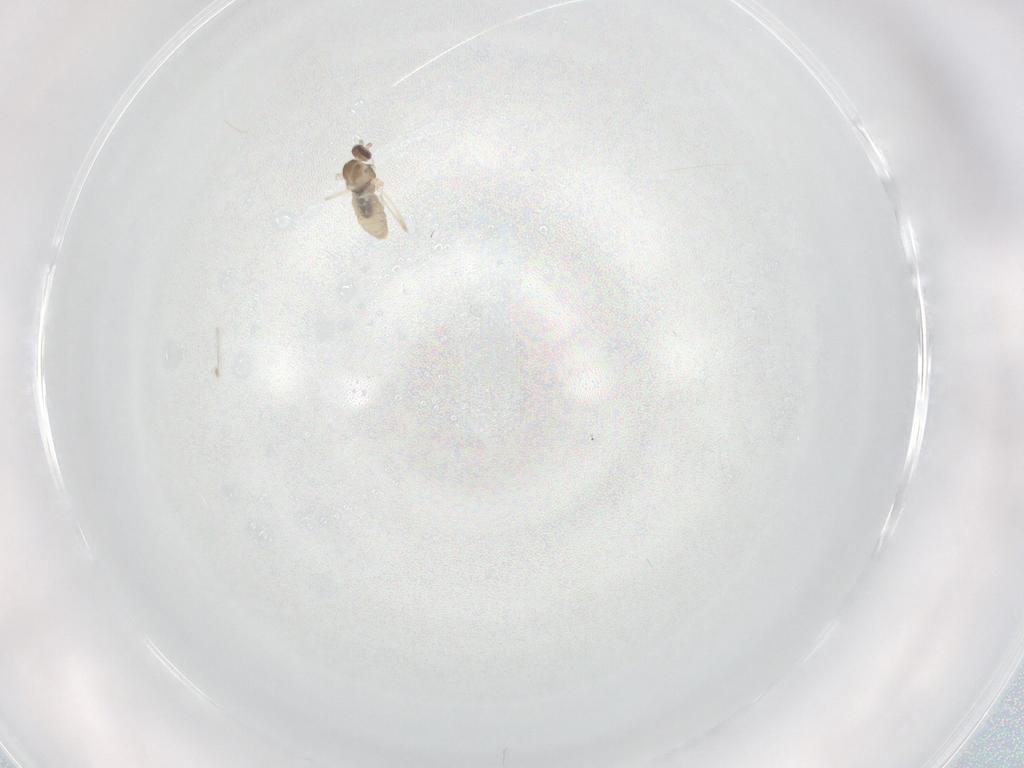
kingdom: Animalia
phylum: Arthropoda
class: Insecta
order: Diptera
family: Cecidomyiidae
